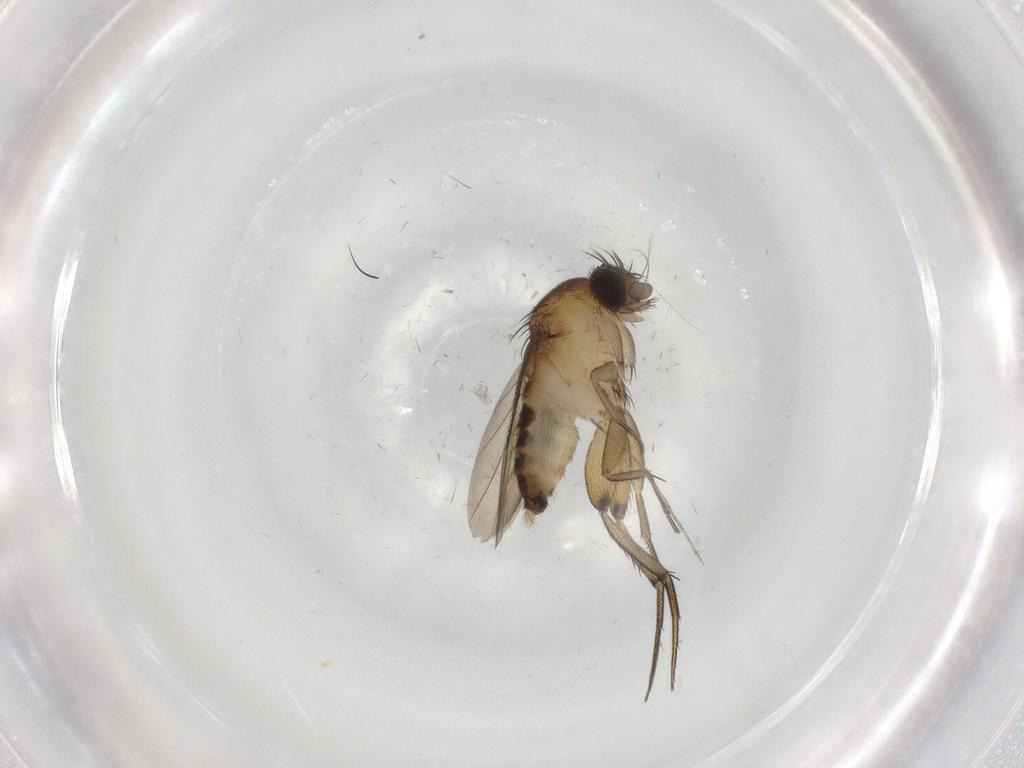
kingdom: Animalia
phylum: Arthropoda
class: Insecta
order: Diptera
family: Phoridae
